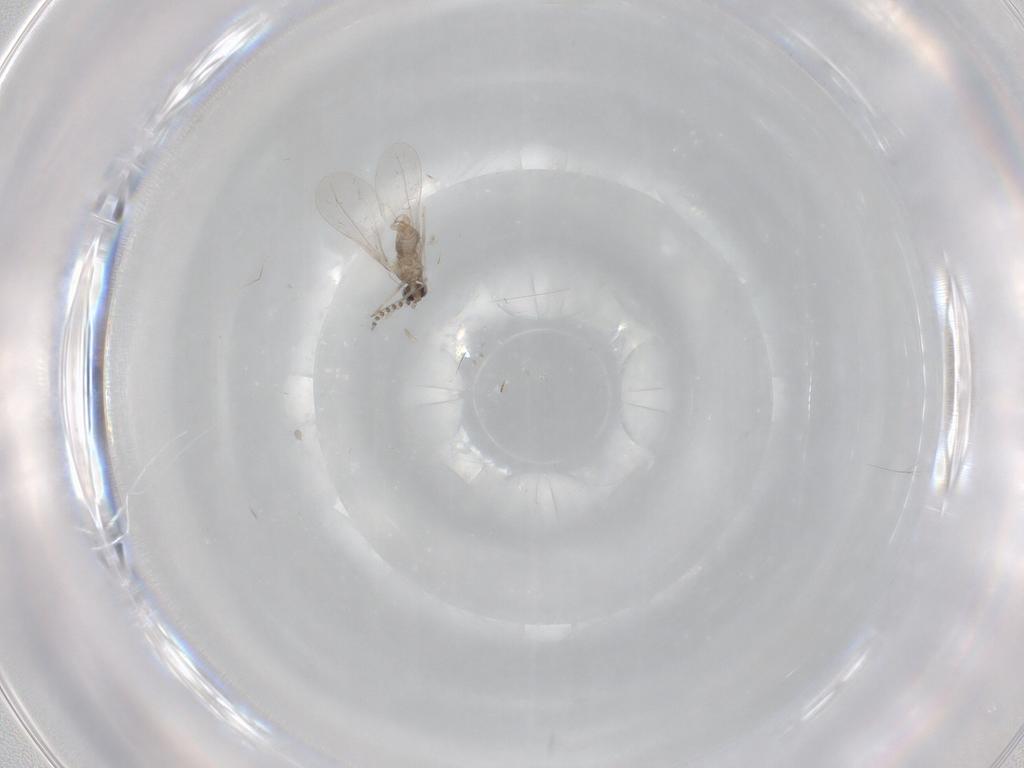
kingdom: Animalia
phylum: Arthropoda
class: Insecta
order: Diptera
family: Cecidomyiidae
